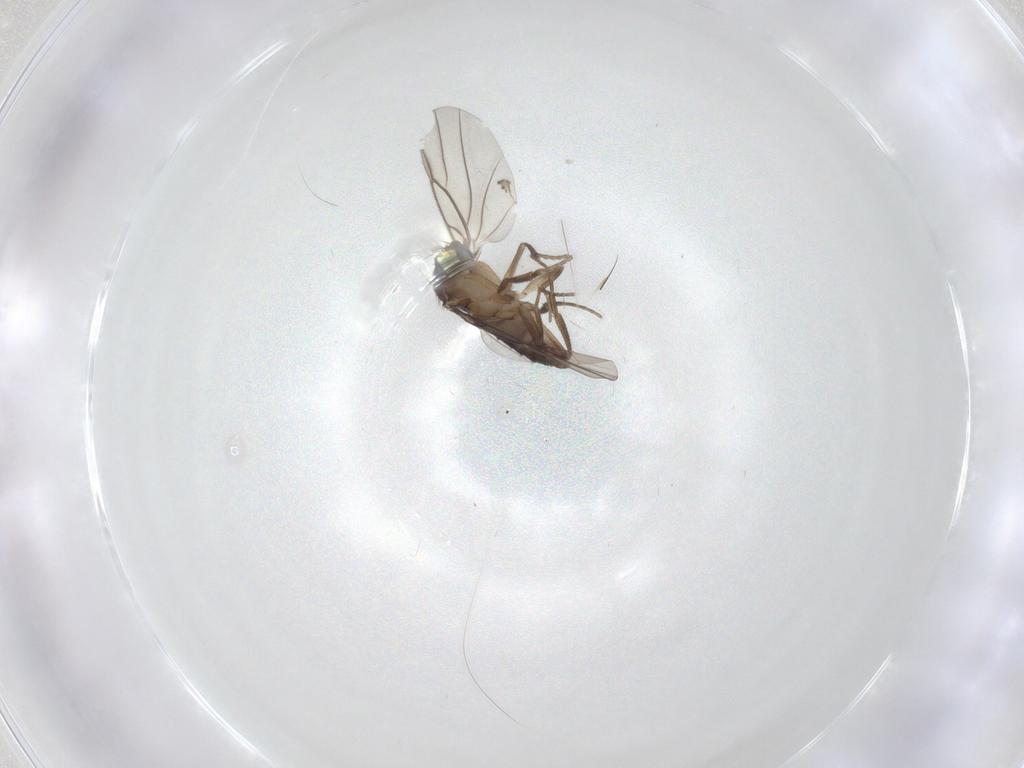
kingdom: Animalia
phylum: Arthropoda
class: Insecta
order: Diptera
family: Phoridae
